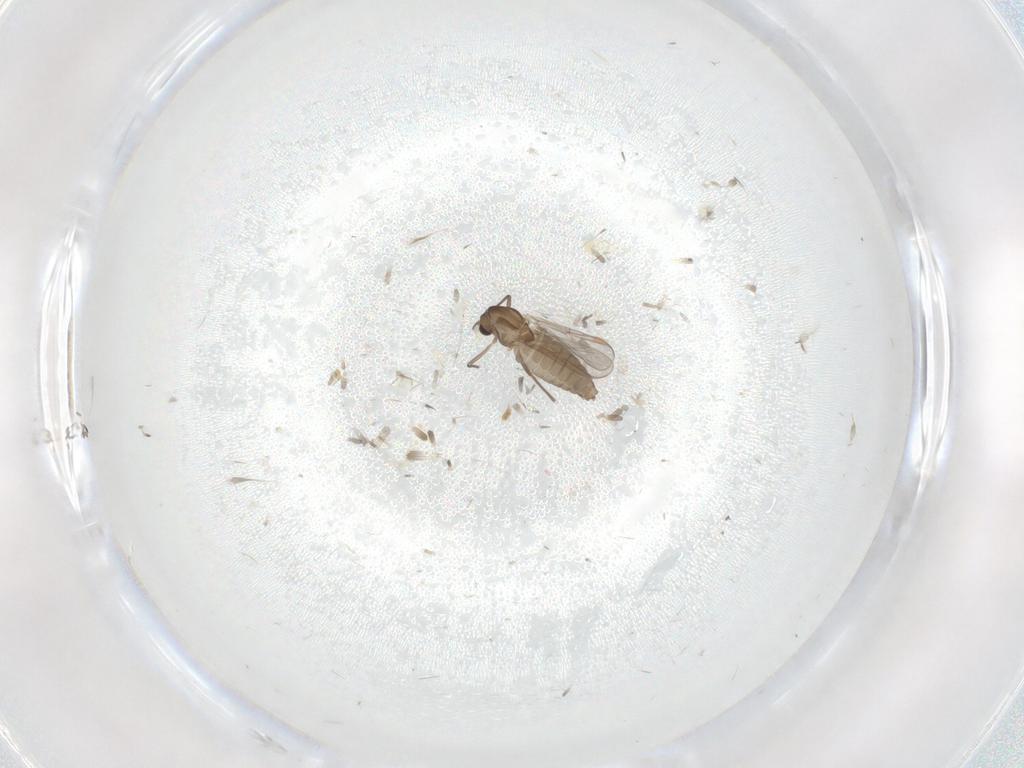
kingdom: Animalia
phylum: Arthropoda
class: Insecta
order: Diptera
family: Chironomidae
